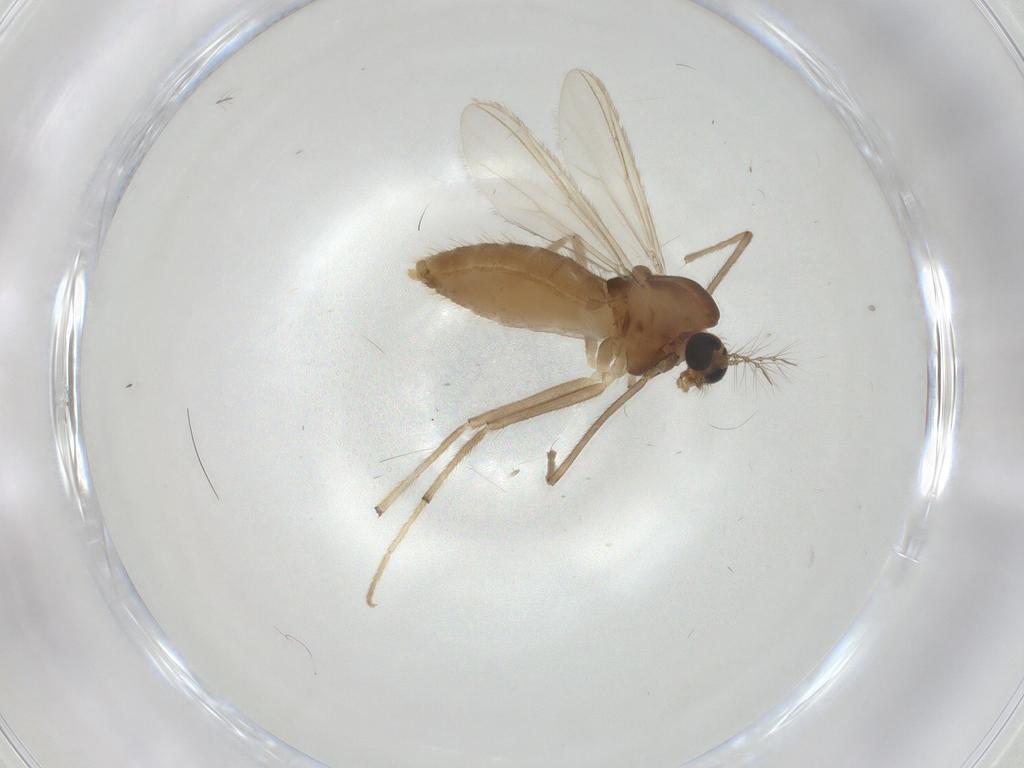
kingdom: Animalia
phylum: Arthropoda
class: Insecta
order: Diptera
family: Chironomidae
